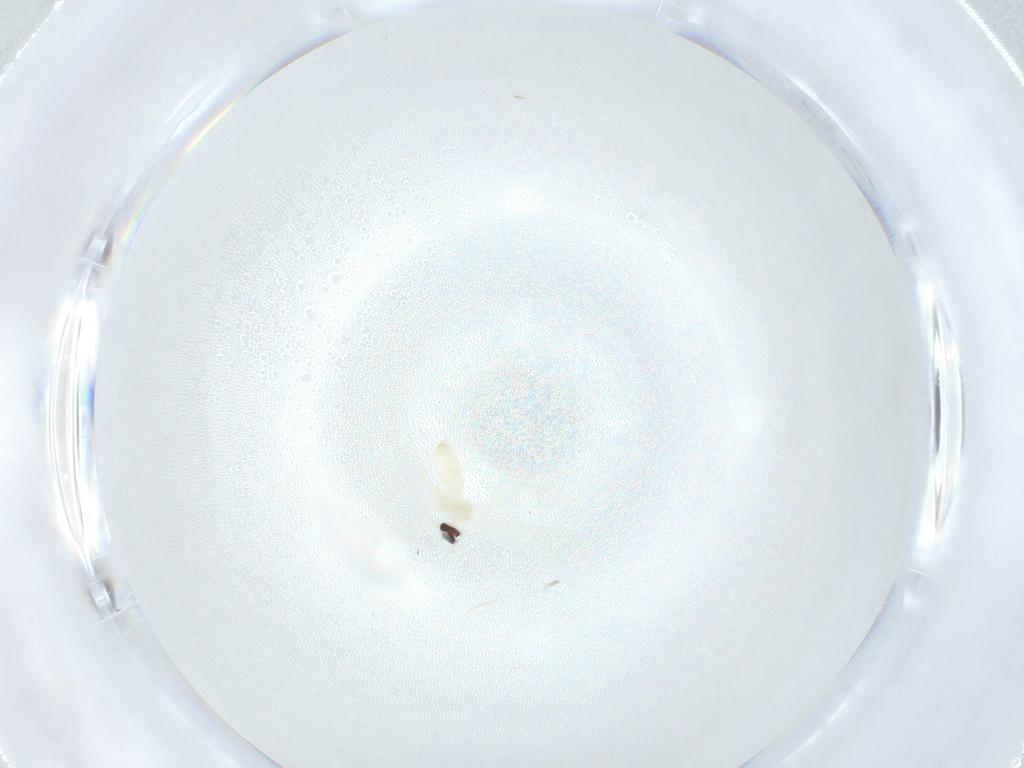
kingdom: Animalia
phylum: Arthropoda
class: Insecta
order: Diptera
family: Cecidomyiidae
